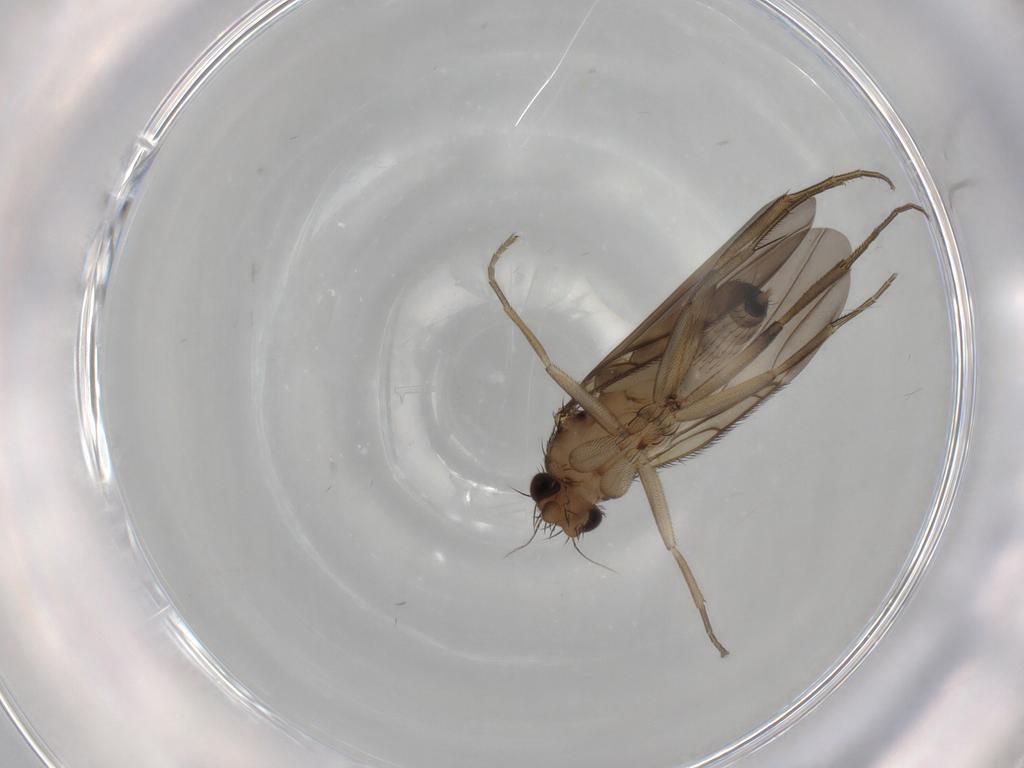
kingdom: Animalia
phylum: Arthropoda
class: Insecta
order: Diptera
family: Phoridae
